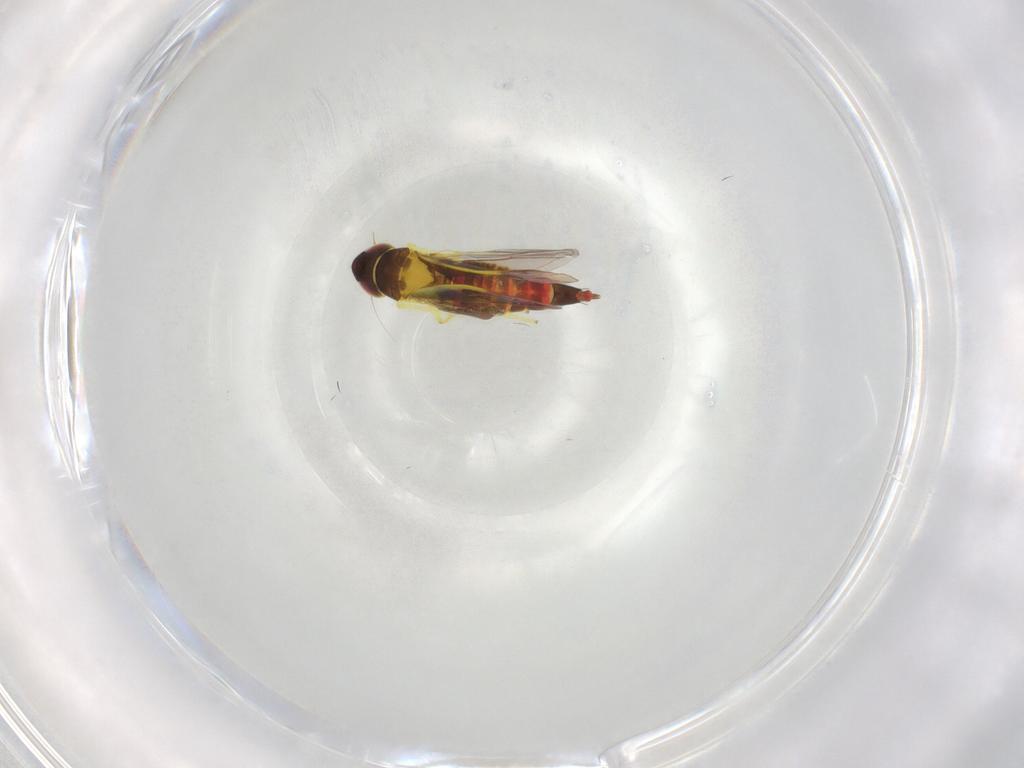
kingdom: Animalia
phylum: Arthropoda
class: Insecta
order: Hemiptera
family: Cicadellidae
